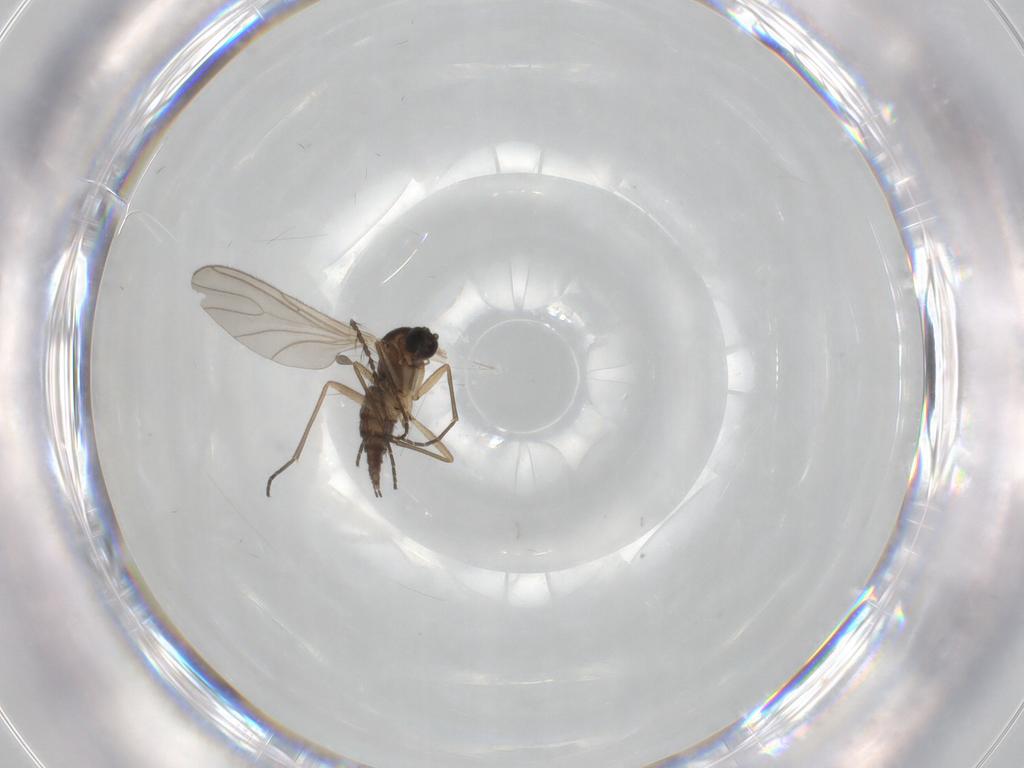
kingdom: Animalia
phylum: Arthropoda
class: Insecta
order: Diptera
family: Sciaridae
